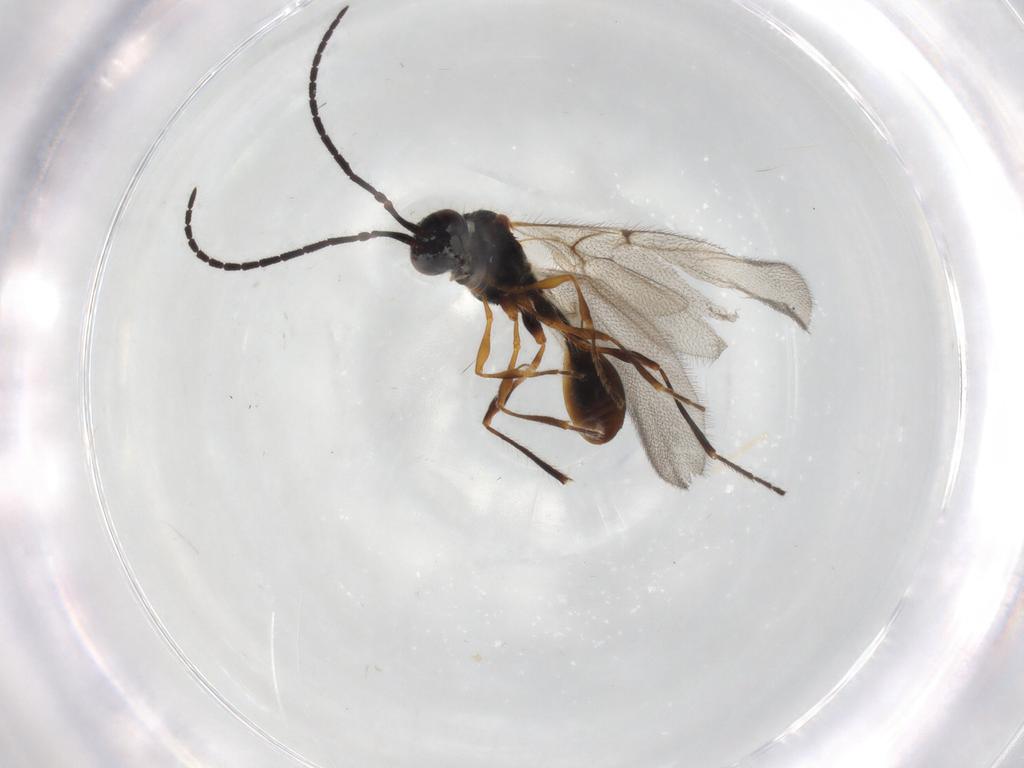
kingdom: Animalia
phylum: Arthropoda
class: Insecta
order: Hymenoptera
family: Diapriidae
